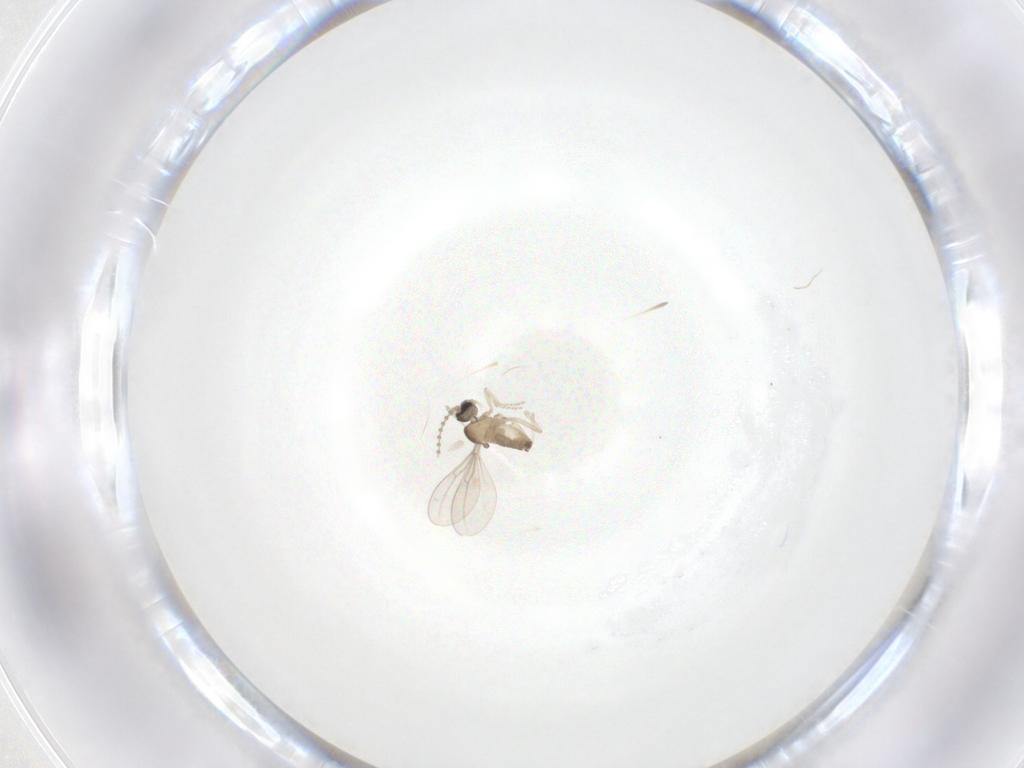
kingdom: Animalia
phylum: Arthropoda
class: Insecta
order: Diptera
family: Cecidomyiidae
